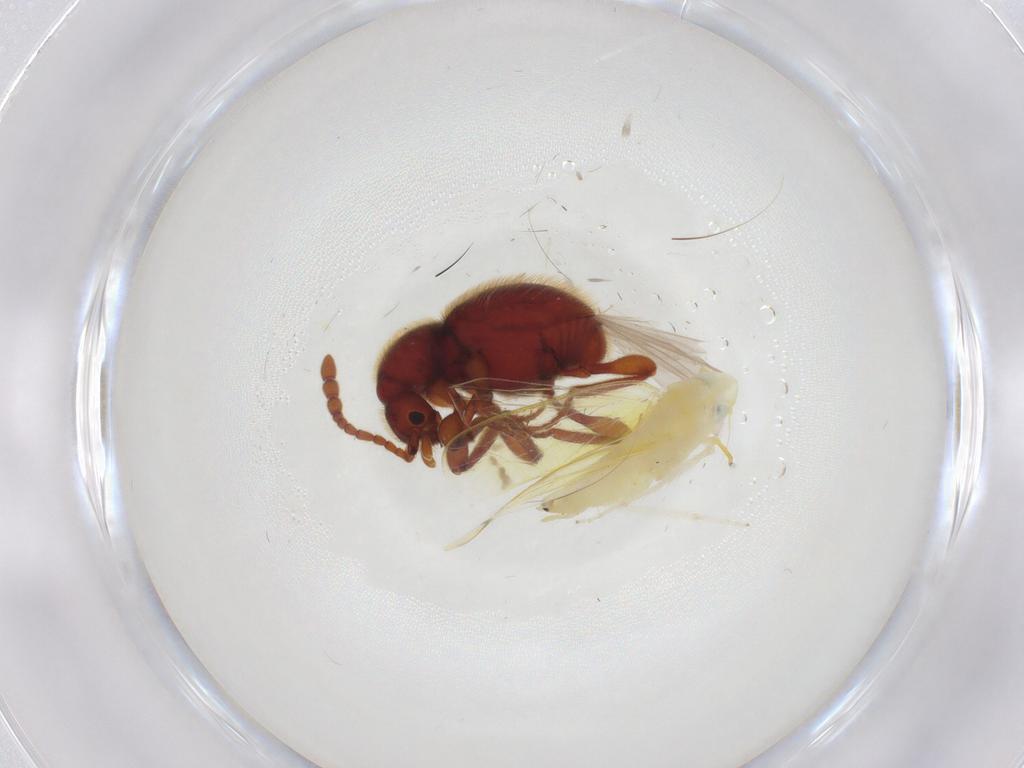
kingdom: Animalia
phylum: Arthropoda
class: Insecta
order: Coleoptera
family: Staphylinidae
